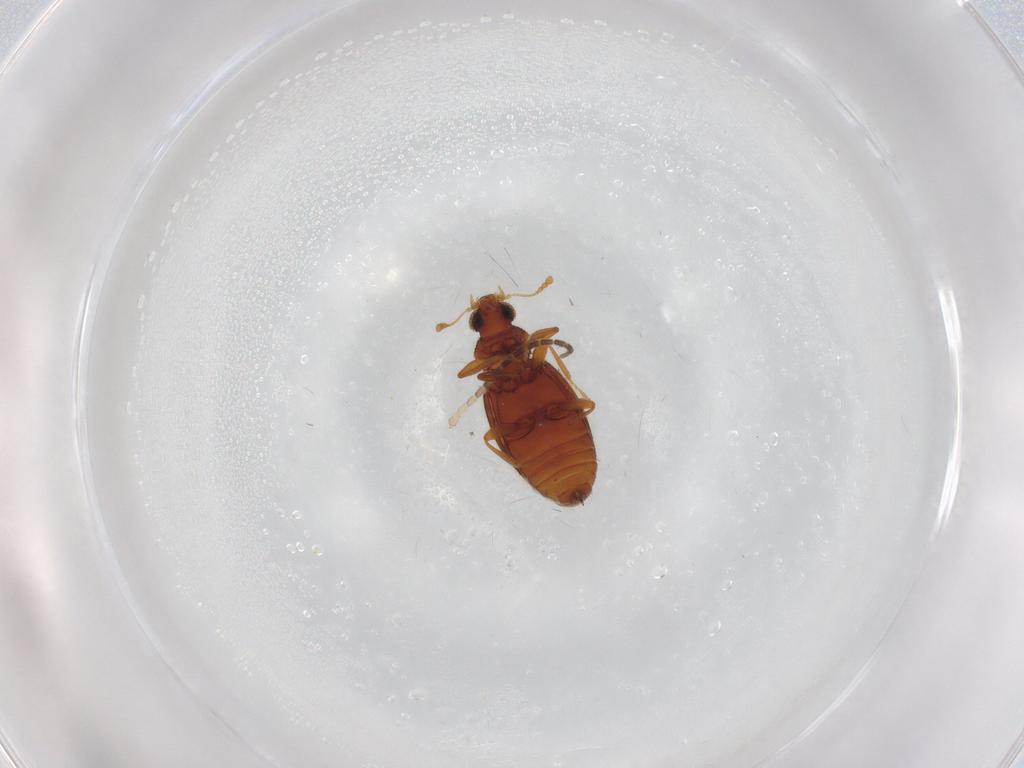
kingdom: Animalia
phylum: Arthropoda
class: Insecta
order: Coleoptera
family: Latridiidae
